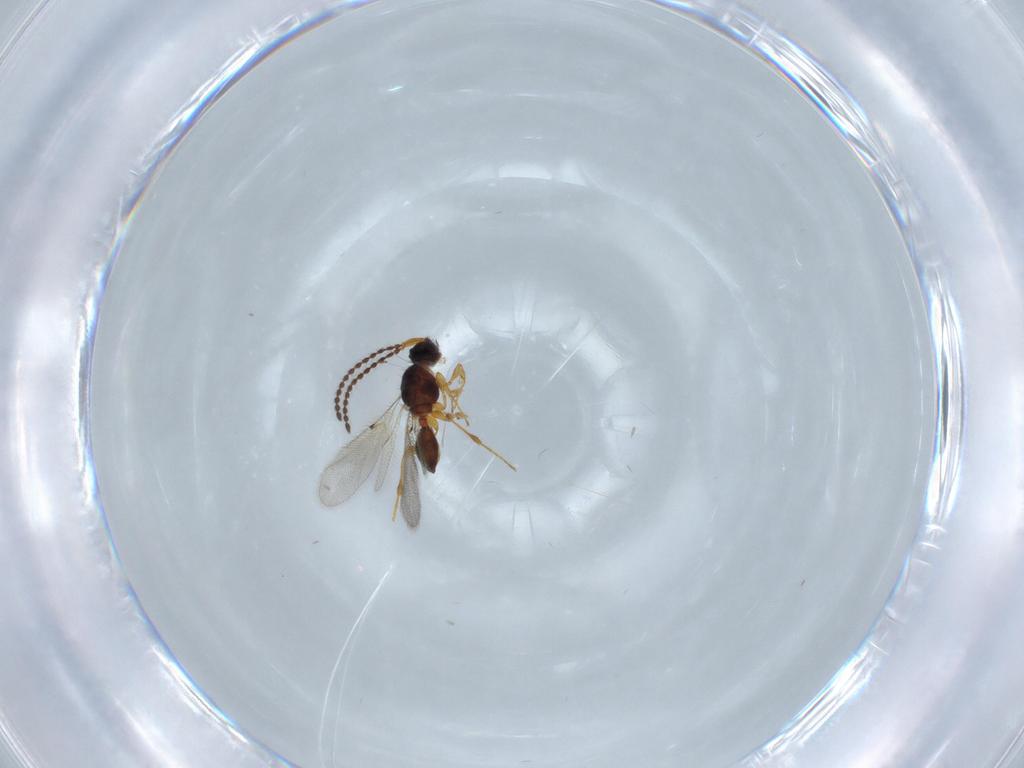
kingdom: Animalia
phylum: Arthropoda
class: Insecta
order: Hymenoptera
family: Diapriidae
